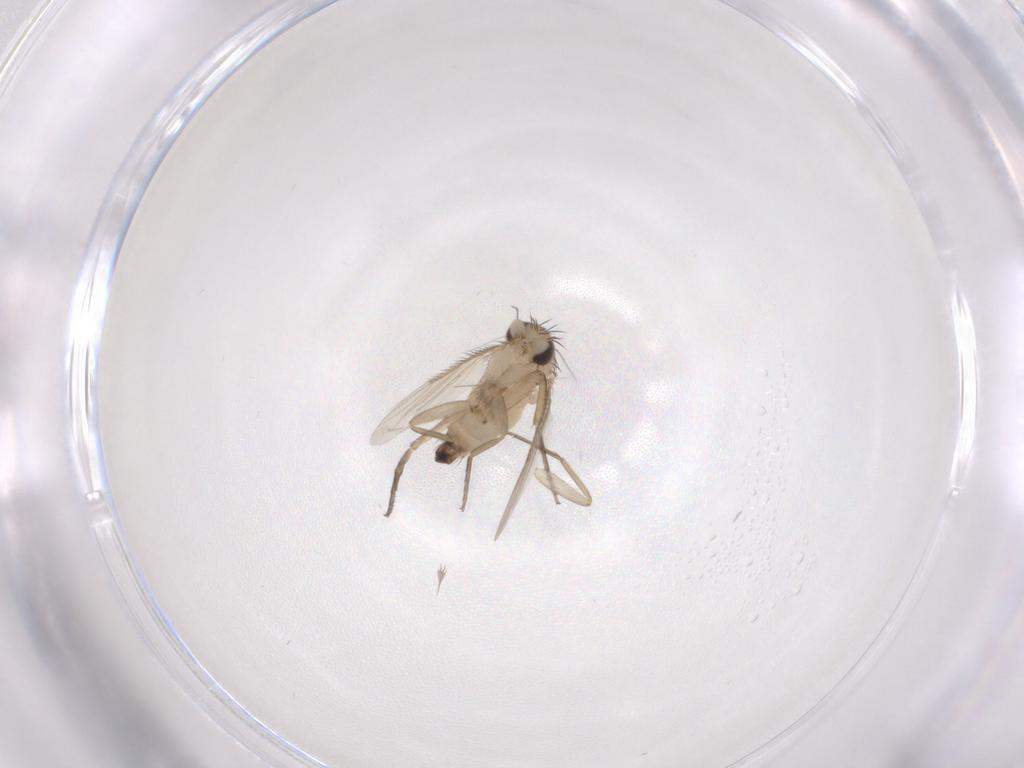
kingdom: Animalia
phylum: Arthropoda
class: Insecta
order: Diptera
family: Phoridae
